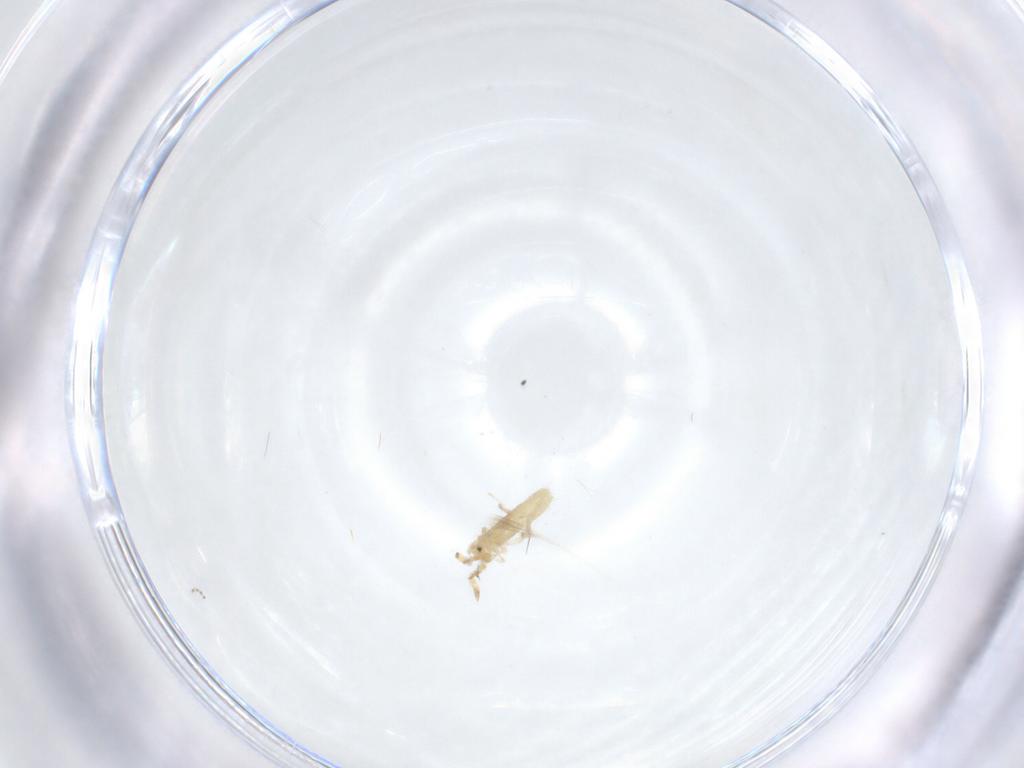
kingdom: Animalia
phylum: Arthropoda
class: Collembola
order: Entomobryomorpha
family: Entomobryidae
